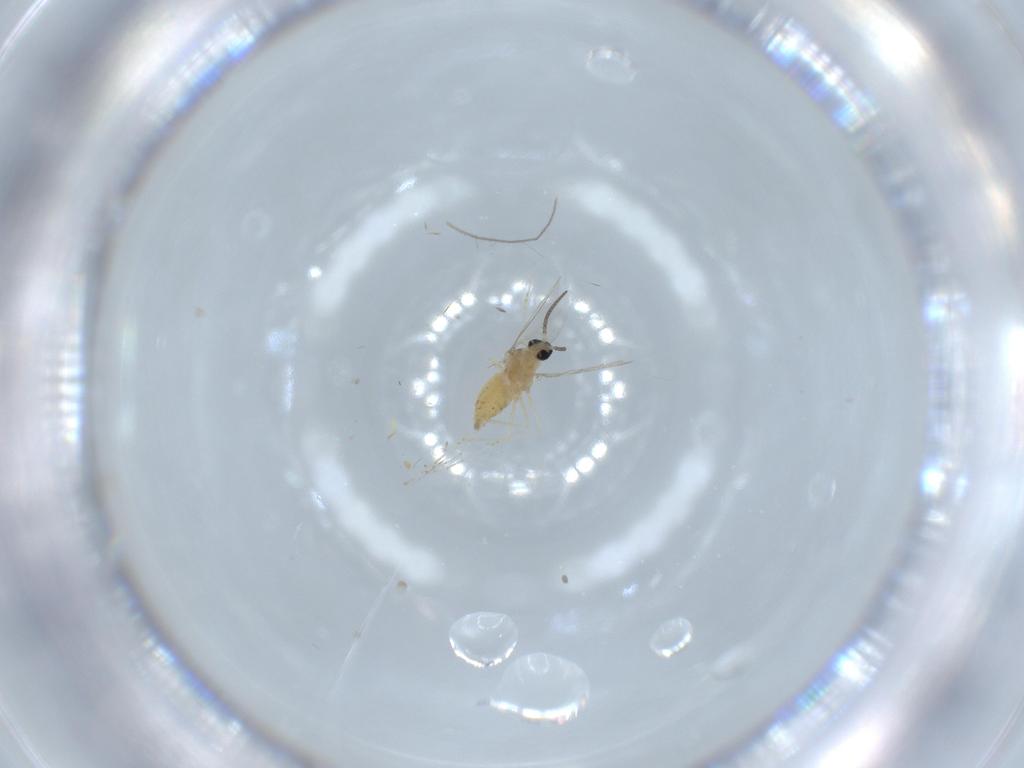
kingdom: Animalia
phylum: Arthropoda
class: Insecta
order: Diptera
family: Cecidomyiidae
